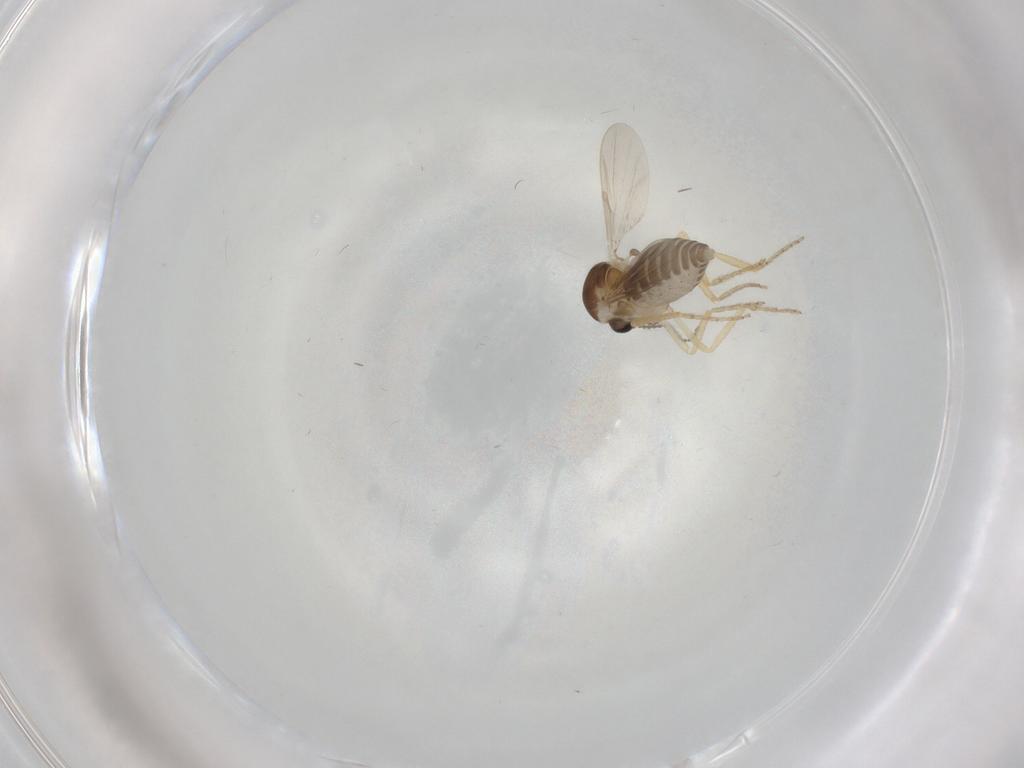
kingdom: Animalia
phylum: Arthropoda
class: Insecta
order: Diptera
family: Ceratopogonidae
